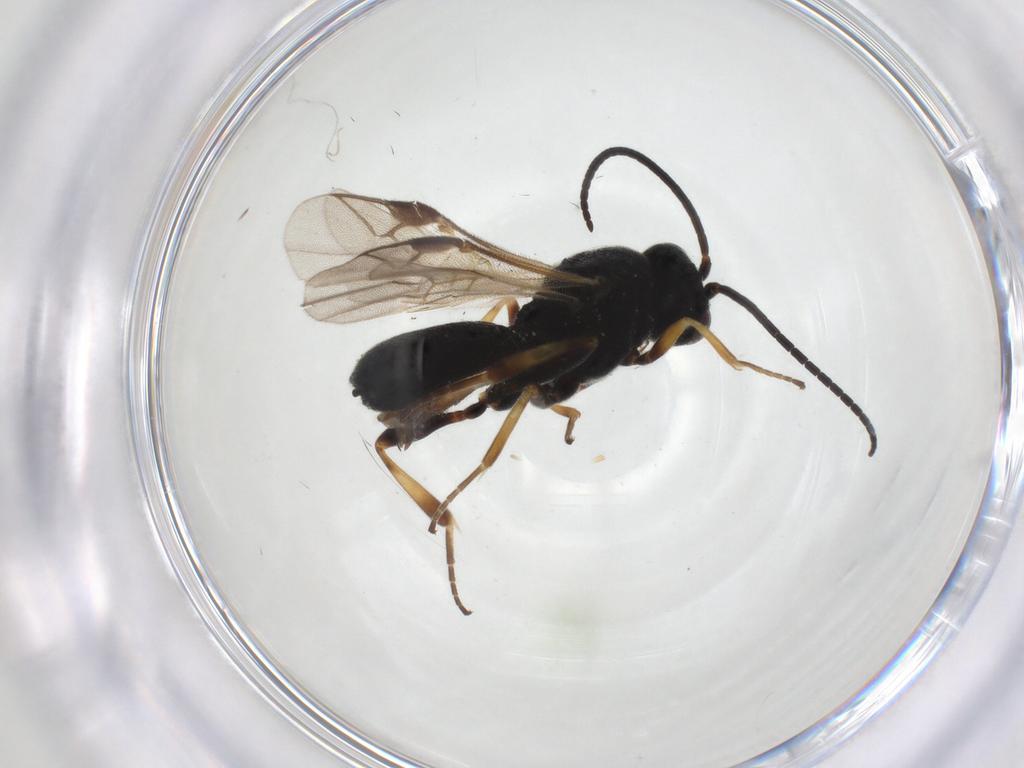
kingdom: Animalia
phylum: Arthropoda
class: Insecta
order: Hymenoptera
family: Braconidae
